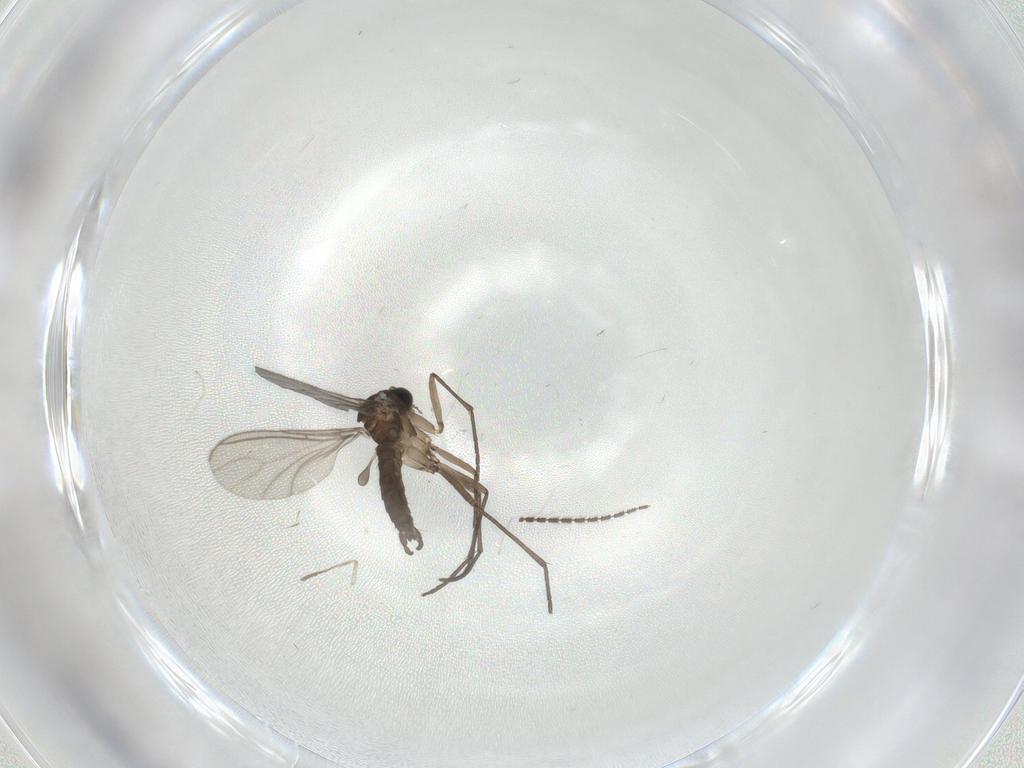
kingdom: Animalia
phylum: Arthropoda
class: Insecta
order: Diptera
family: Sciaridae
